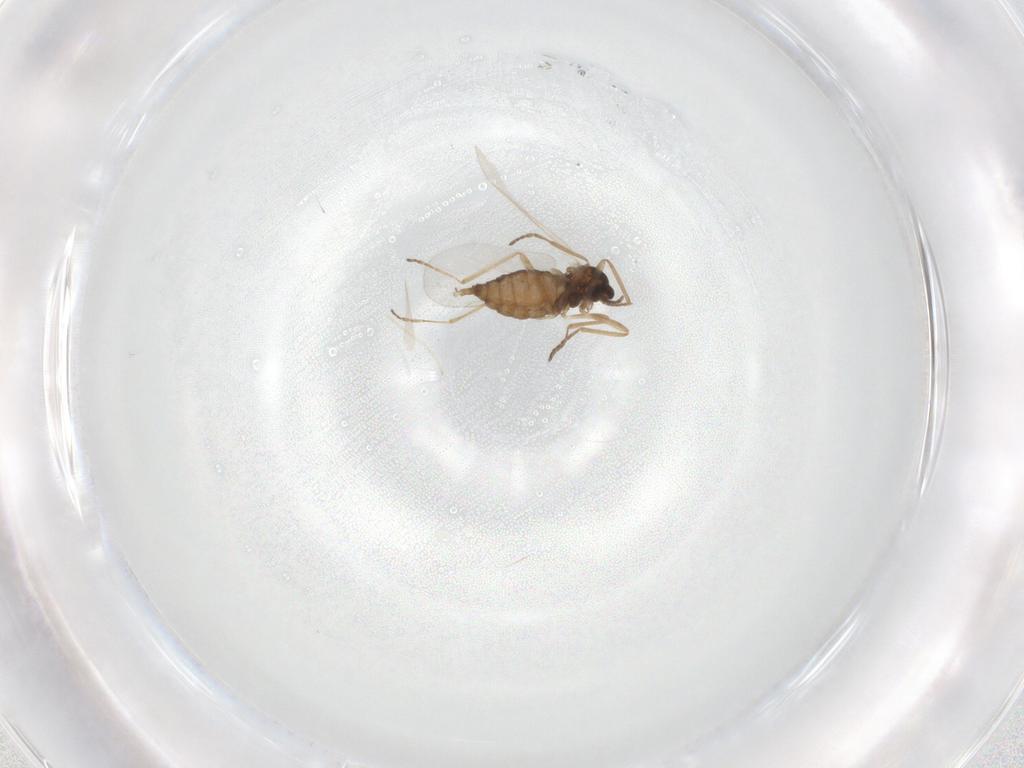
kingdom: Animalia
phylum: Arthropoda
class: Insecta
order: Diptera
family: Cecidomyiidae
